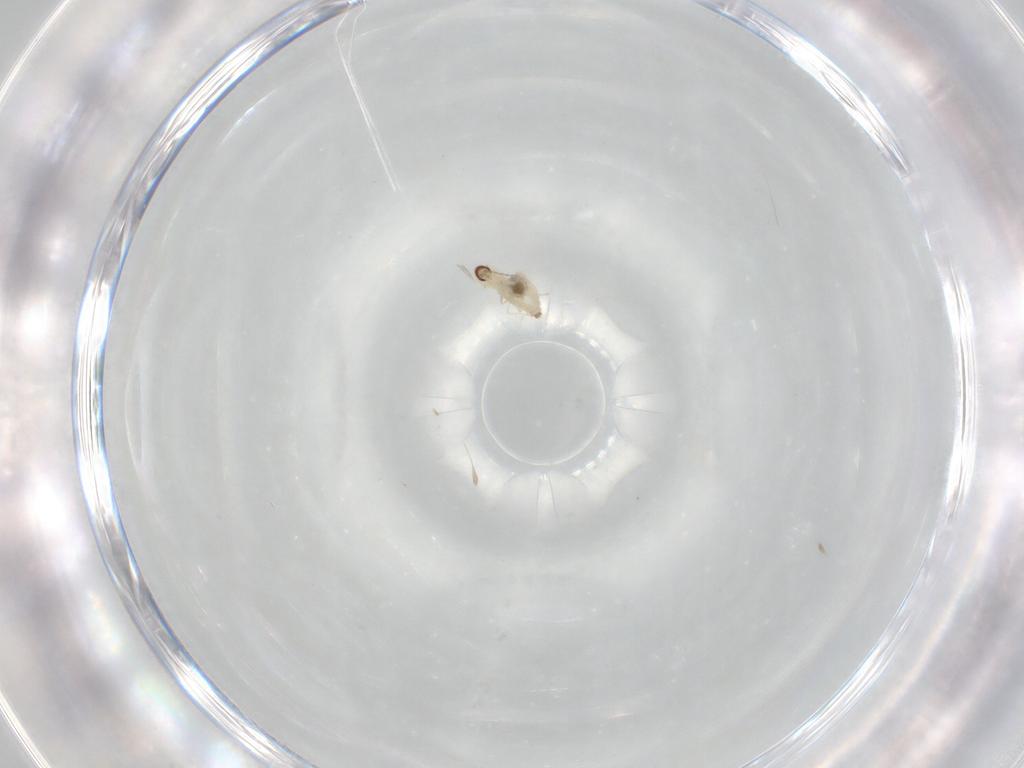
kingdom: Animalia
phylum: Arthropoda
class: Insecta
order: Diptera
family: Cecidomyiidae
